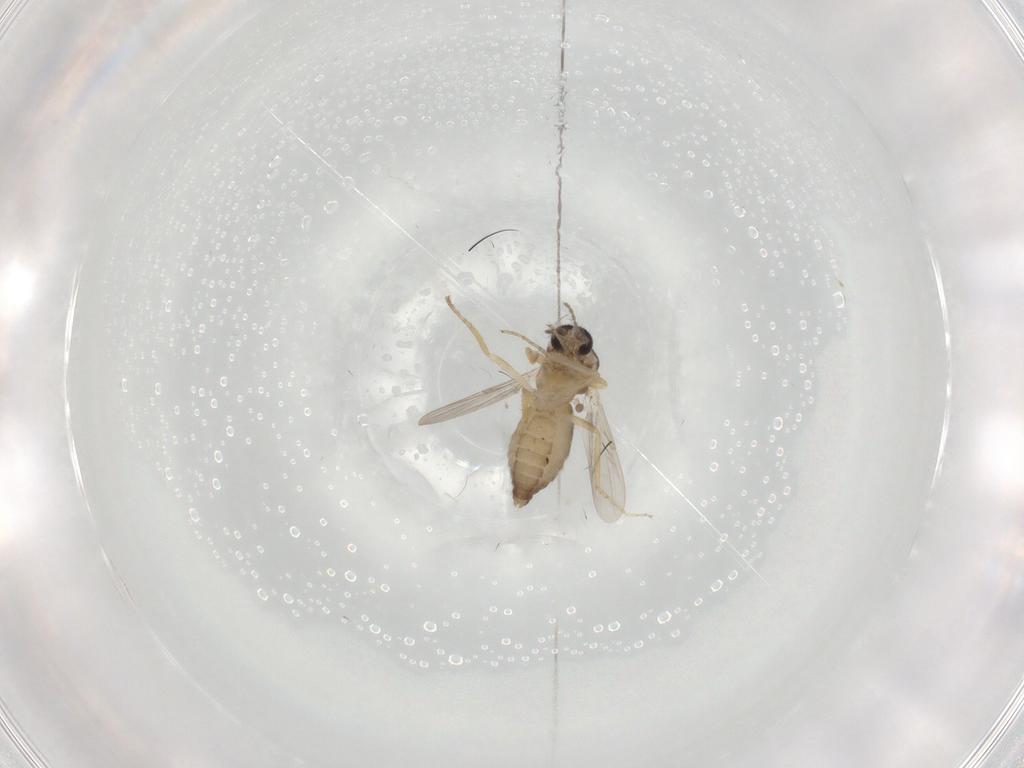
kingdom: Animalia
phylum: Arthropoda
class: Insecta
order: Diptera
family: Ceratopogonidae
